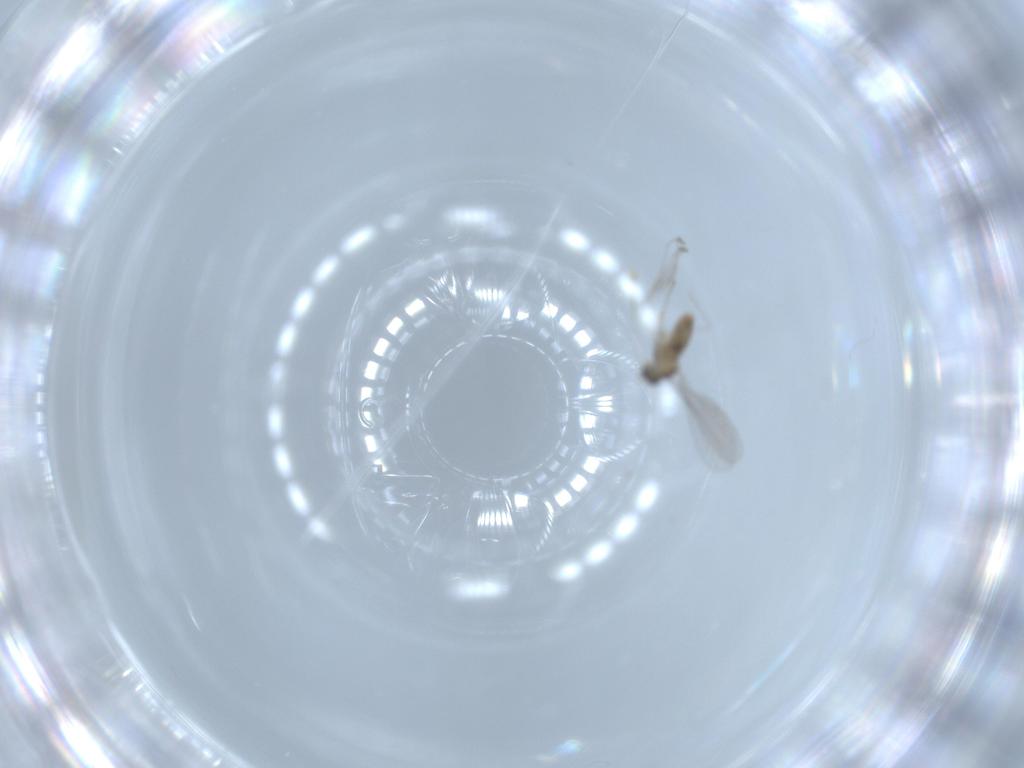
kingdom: Animalia
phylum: Arthropoda
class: Insecta
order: Diptera
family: Cecidomyiidae
